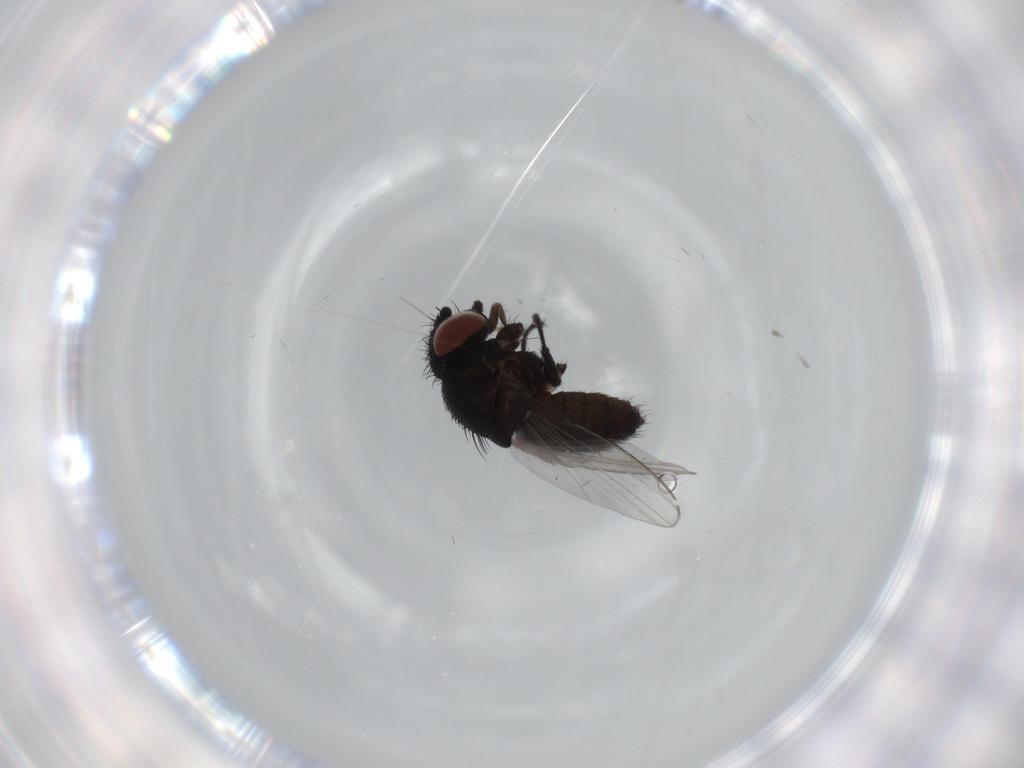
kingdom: Animalia
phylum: Arthropoda
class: Insecta
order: Diptera
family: Milichiidae
